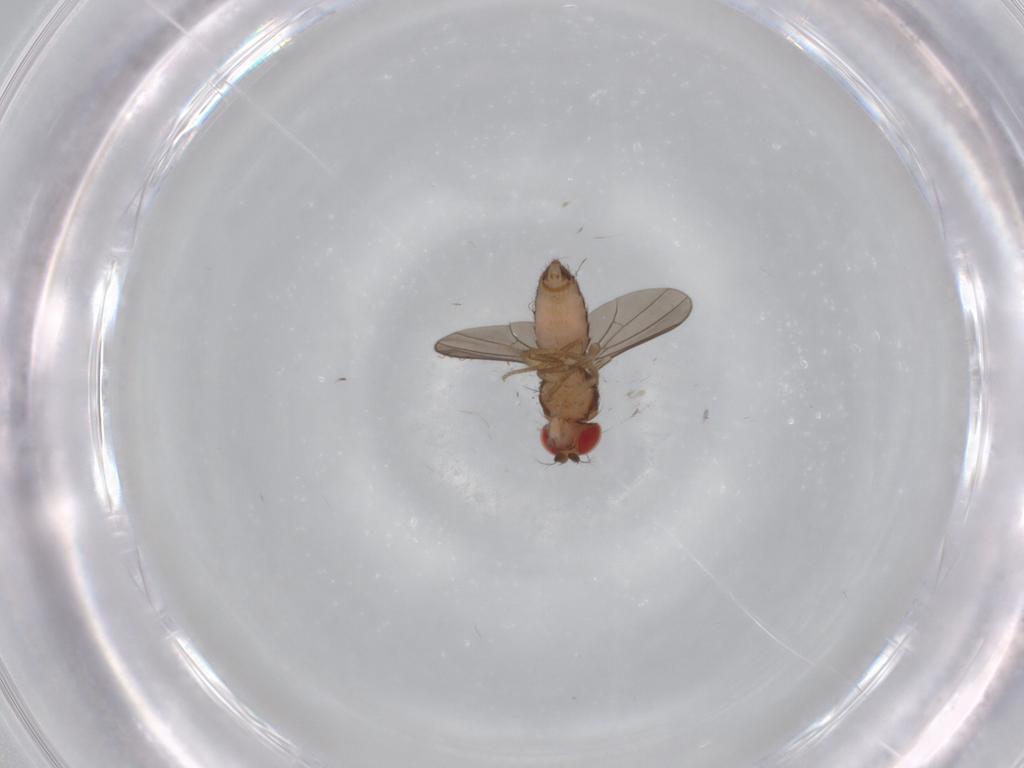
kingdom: Animalia
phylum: Arthropoda
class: Insecta
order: Diptera
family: Drosophilidae
